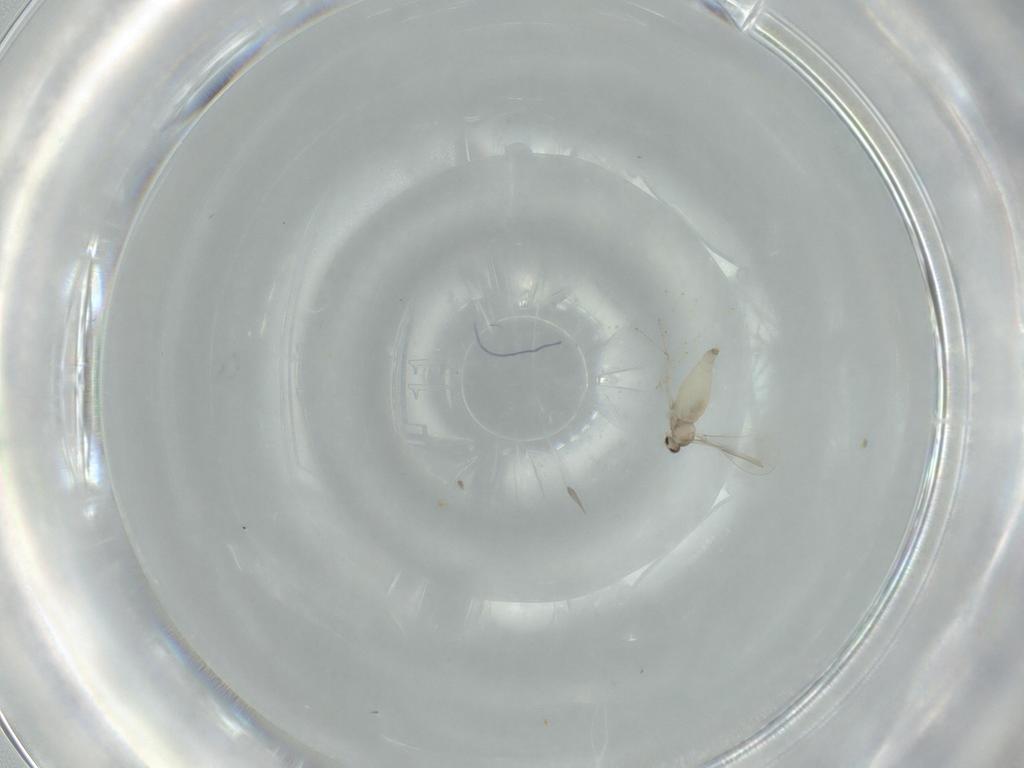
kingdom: Animalia
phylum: Arthropoda
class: Insecta
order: Diptera
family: Cecidomyiidae
